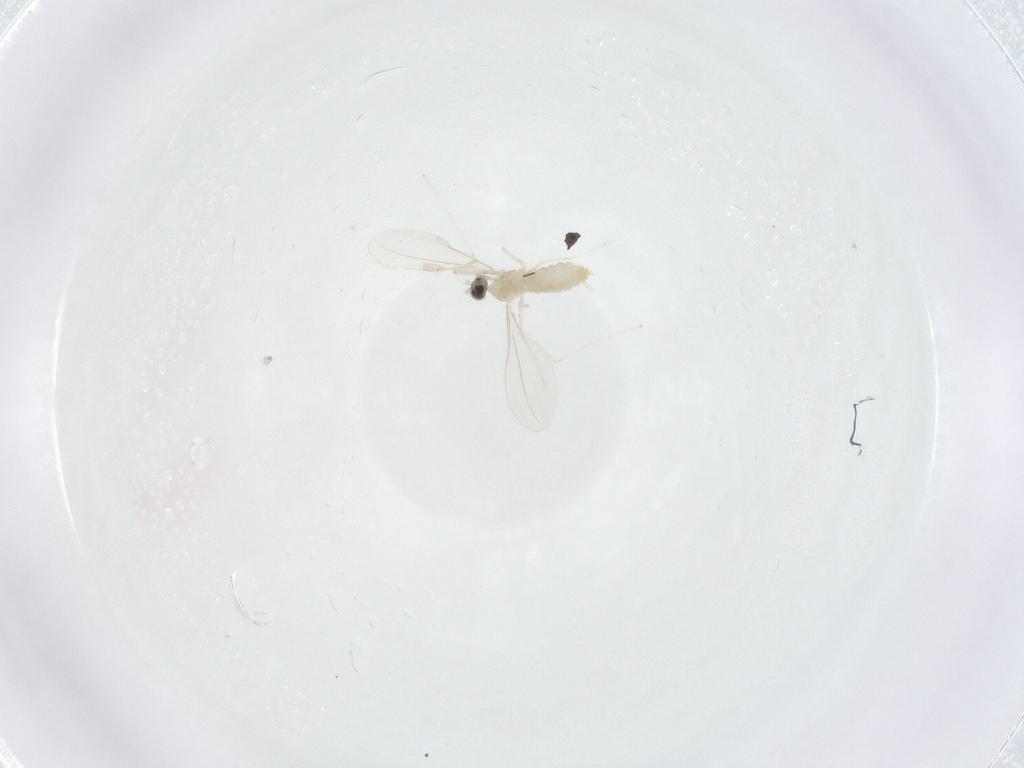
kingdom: Animalia
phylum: Arthropoda
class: Insecta
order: Diptera
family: Cecidomyiidae
